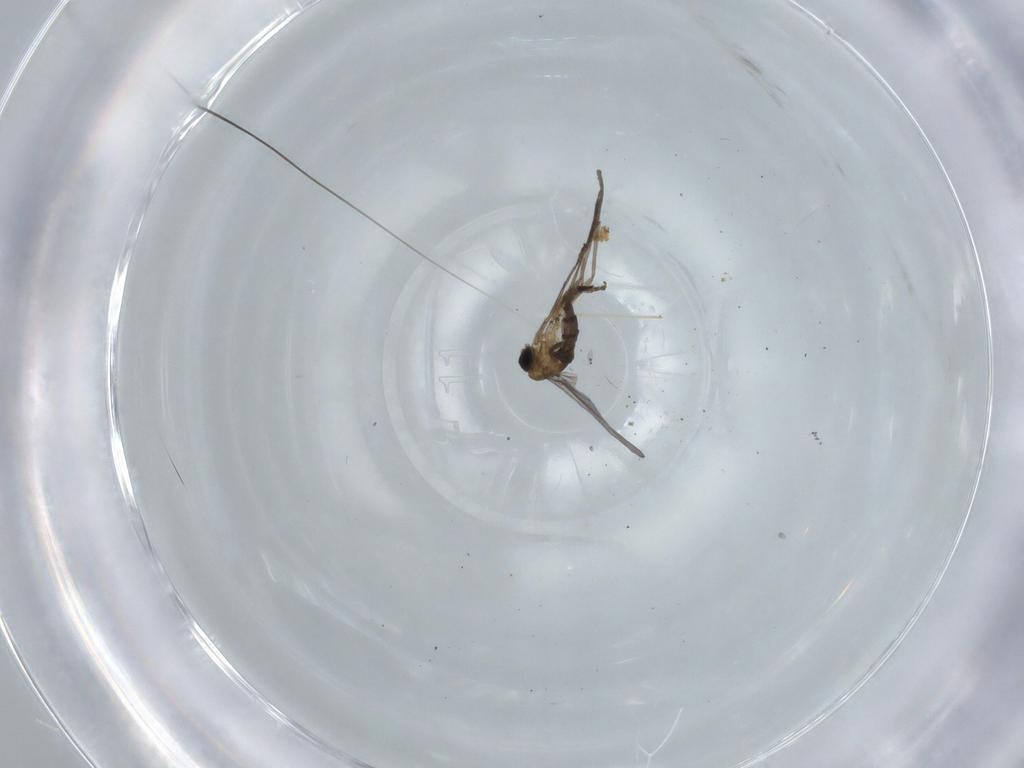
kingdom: Animalia
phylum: Arthropoda
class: Insecta
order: Diptera
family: Sciaridae
